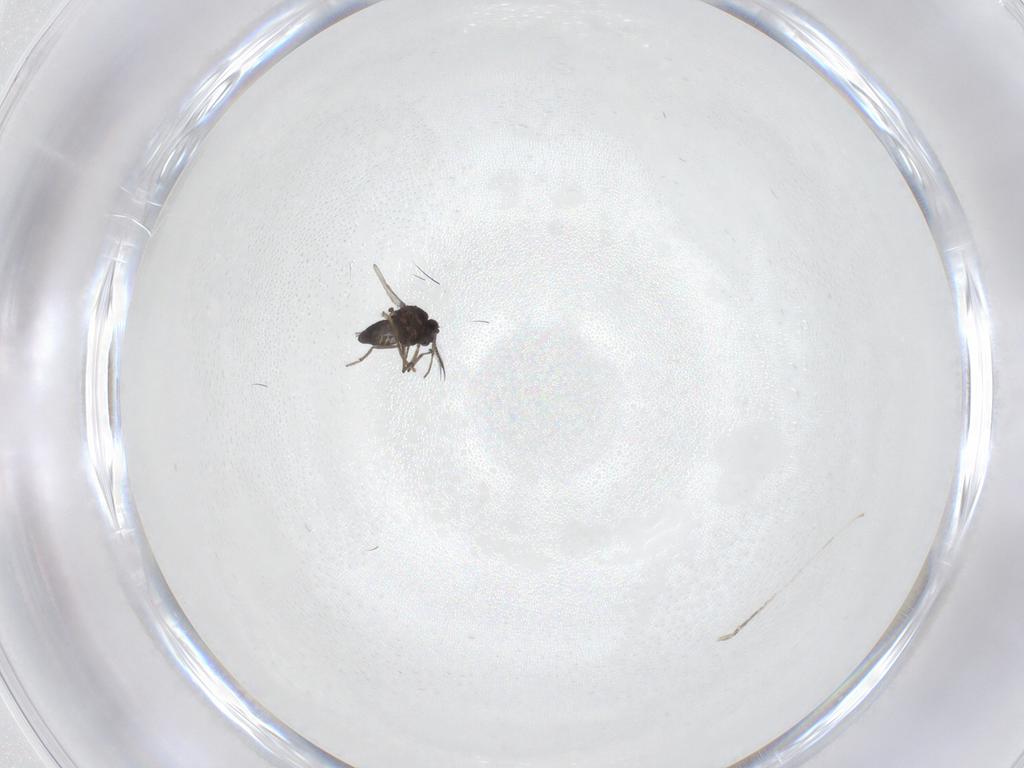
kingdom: Animalia
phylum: Arthropoda
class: Insecta
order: Diptera
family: Ceratopogonidae
